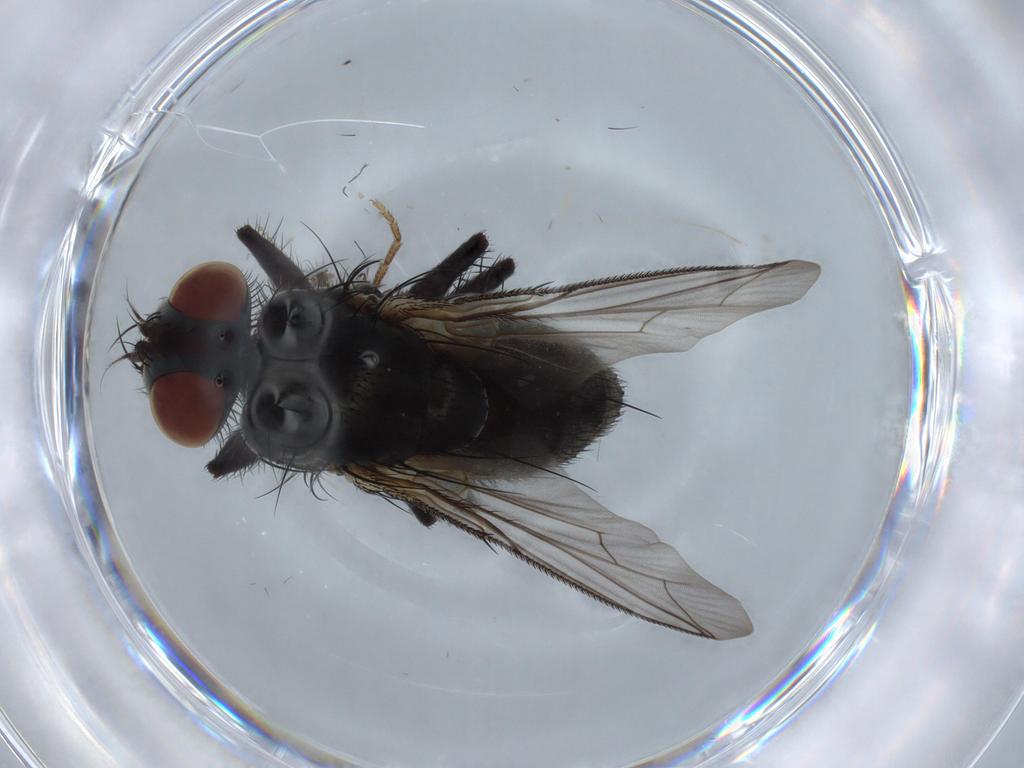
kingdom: Animalia
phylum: Arthropoda
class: Insecta
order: Diptera
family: Sarcophagidae
